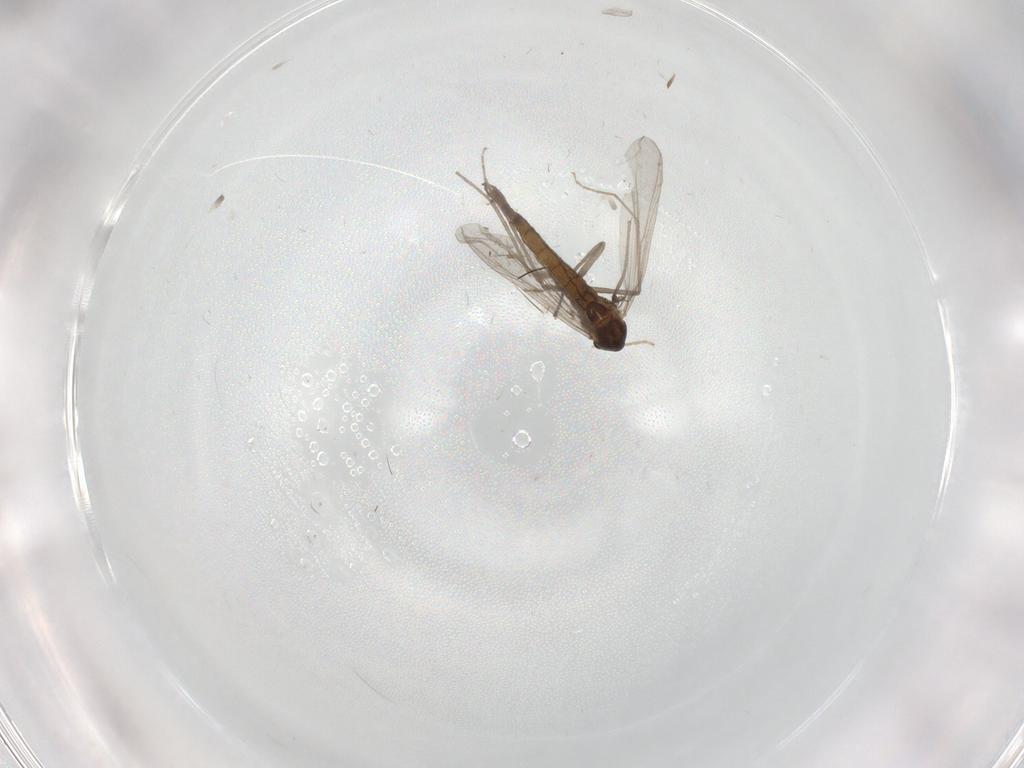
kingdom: Animalia
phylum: Arthropoda
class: Insecta
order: Diptera
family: Chironomidae
